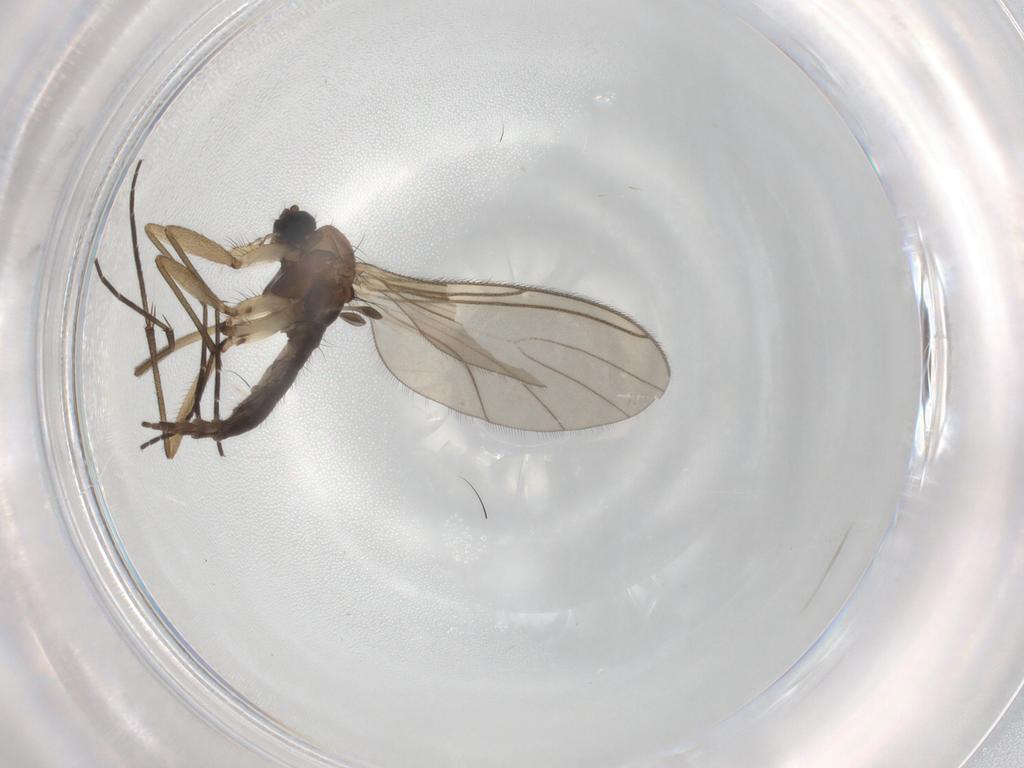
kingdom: Animalia
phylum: Arthropoda
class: Insecta
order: Diptera
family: Sciaridae
